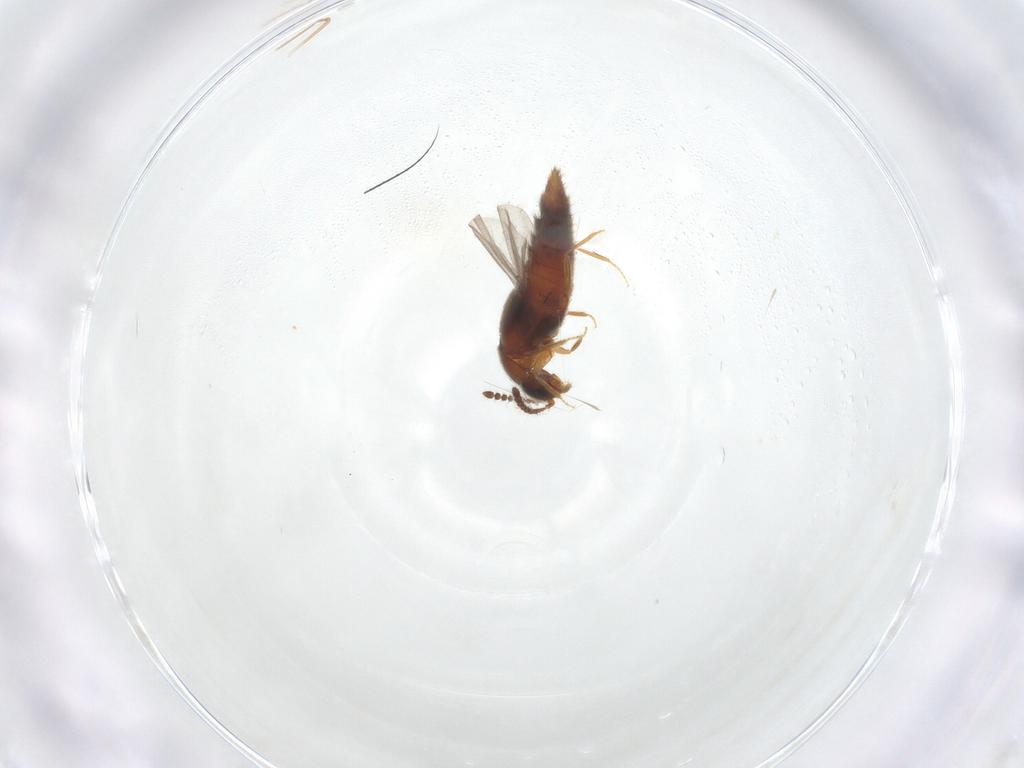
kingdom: Animalia
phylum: Arthropoda
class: Insecta
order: Coleoptera
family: Staphylinidae
